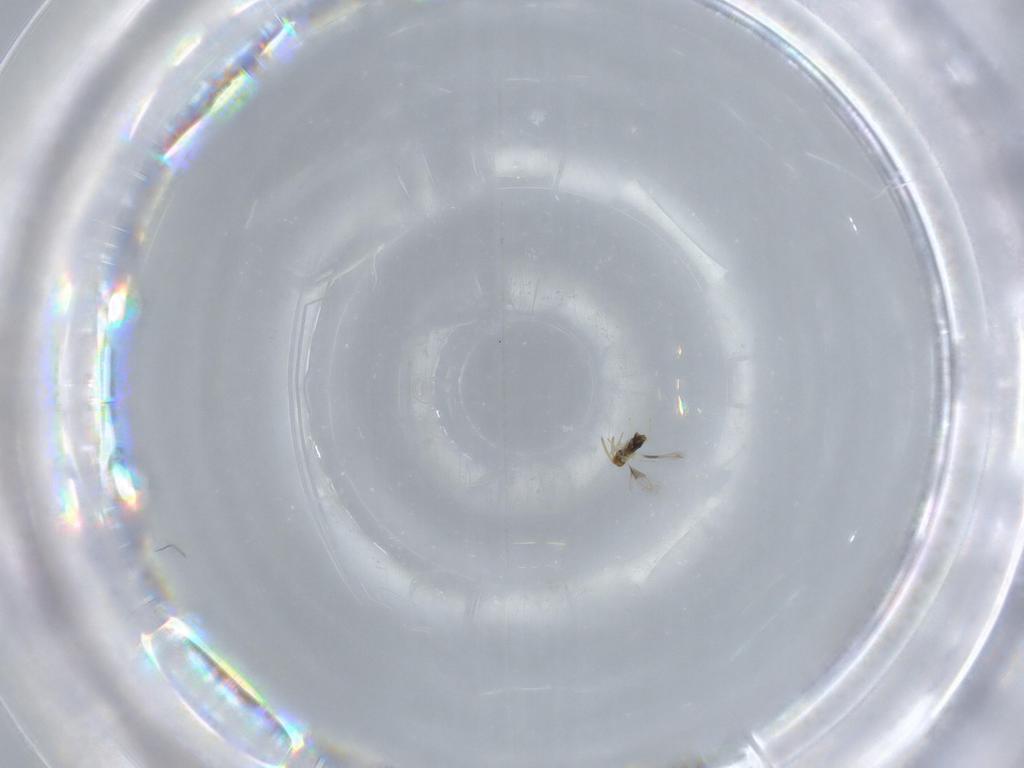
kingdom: Animalia
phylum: Arthropoda
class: Insecta
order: Hymenoptera
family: Aphelinidae
